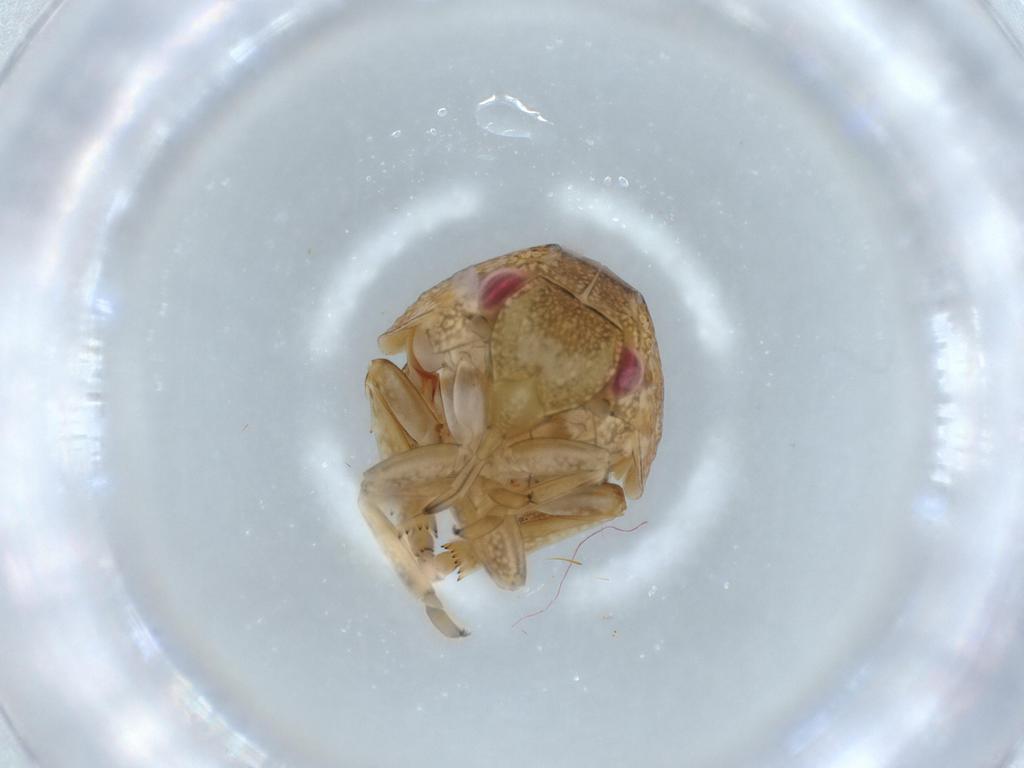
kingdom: Animalia
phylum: Arthropoda
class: Insecta
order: Hemiptera
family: Acanaloniidae
